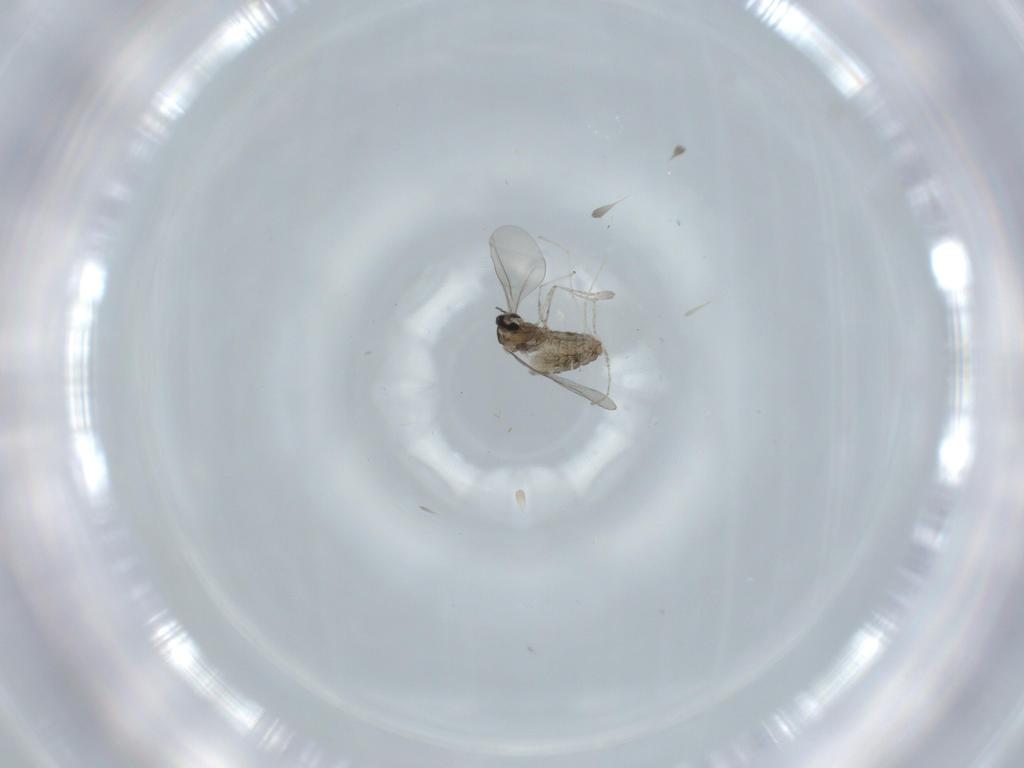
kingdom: Animalia
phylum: Arthropoda
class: Insecta
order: Diptera
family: Cecidomyiidae
